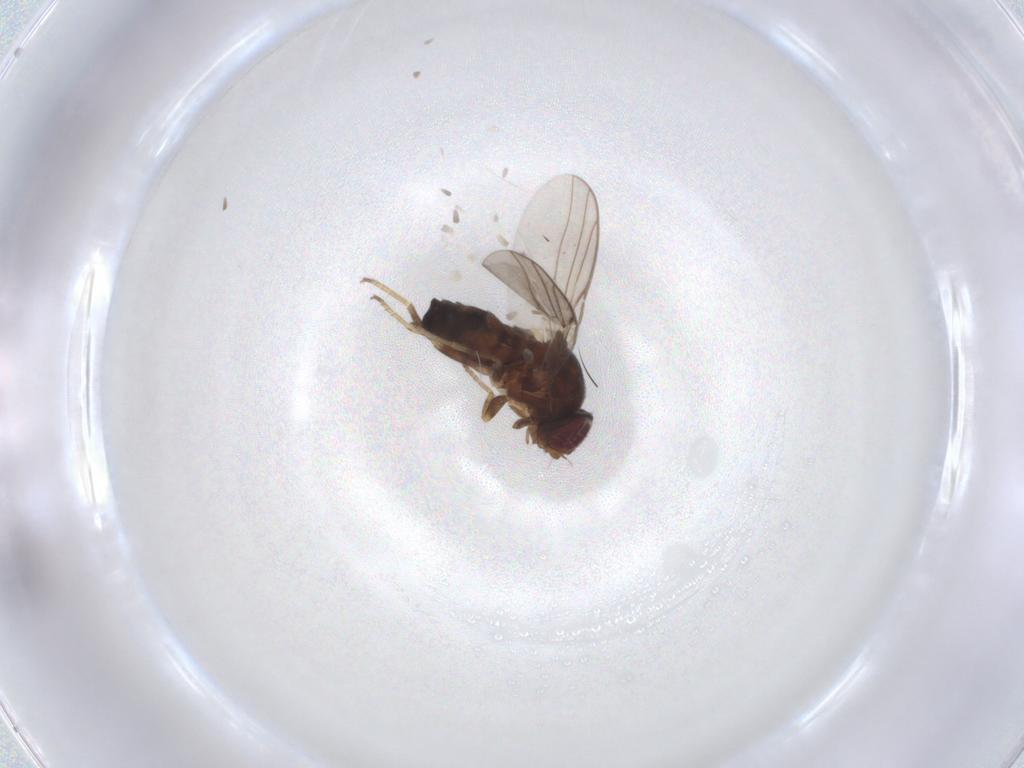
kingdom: Animalia
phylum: Arthropoda
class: Insecta
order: Diptera
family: Chloropidae
